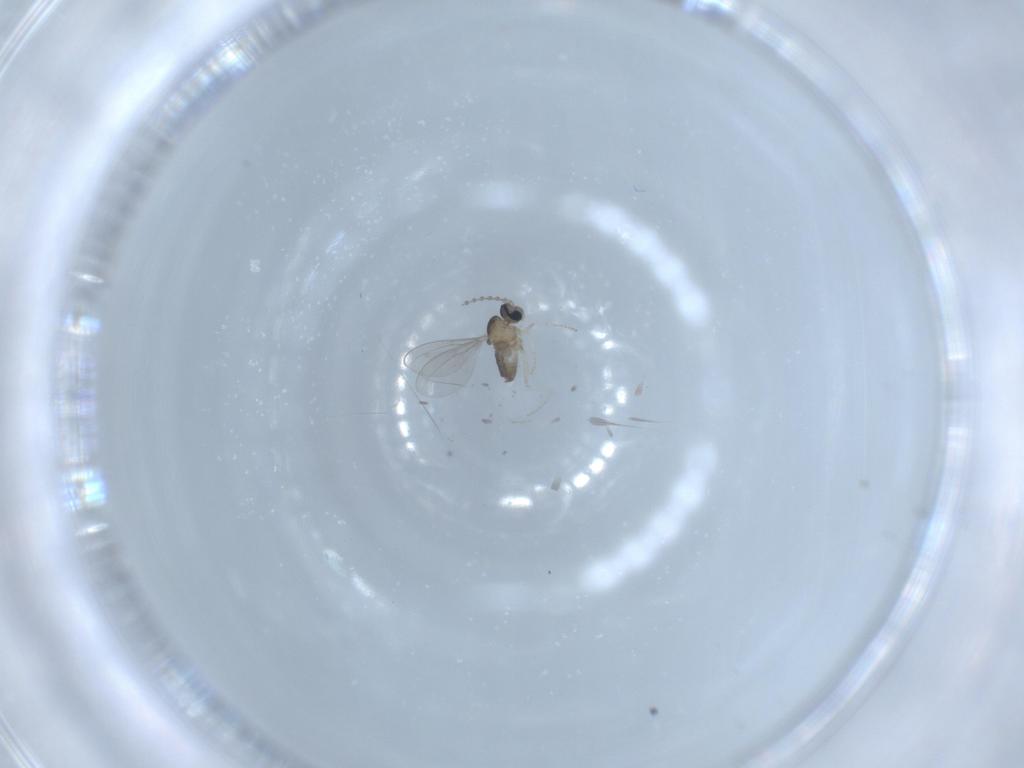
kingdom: Animalia
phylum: Arthropoda
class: Insecta
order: Diptera
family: Cecidomyiidae
